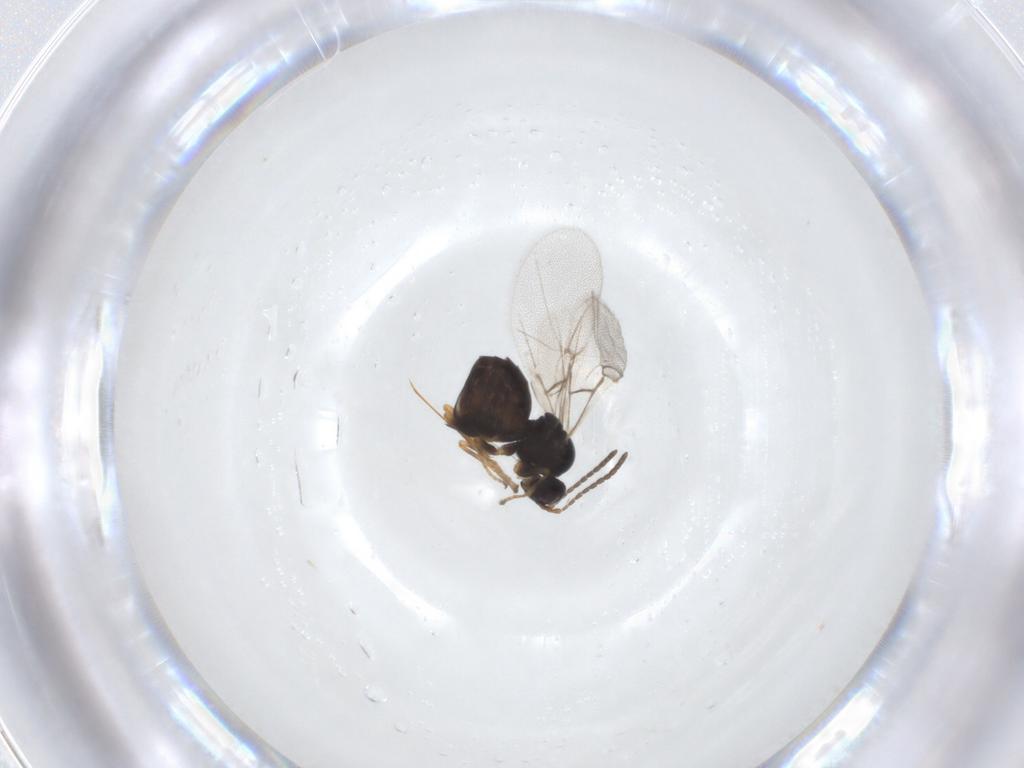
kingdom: Animalia
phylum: Arthropoda
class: Insecta
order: Hymenoptera
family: Cynipidae
